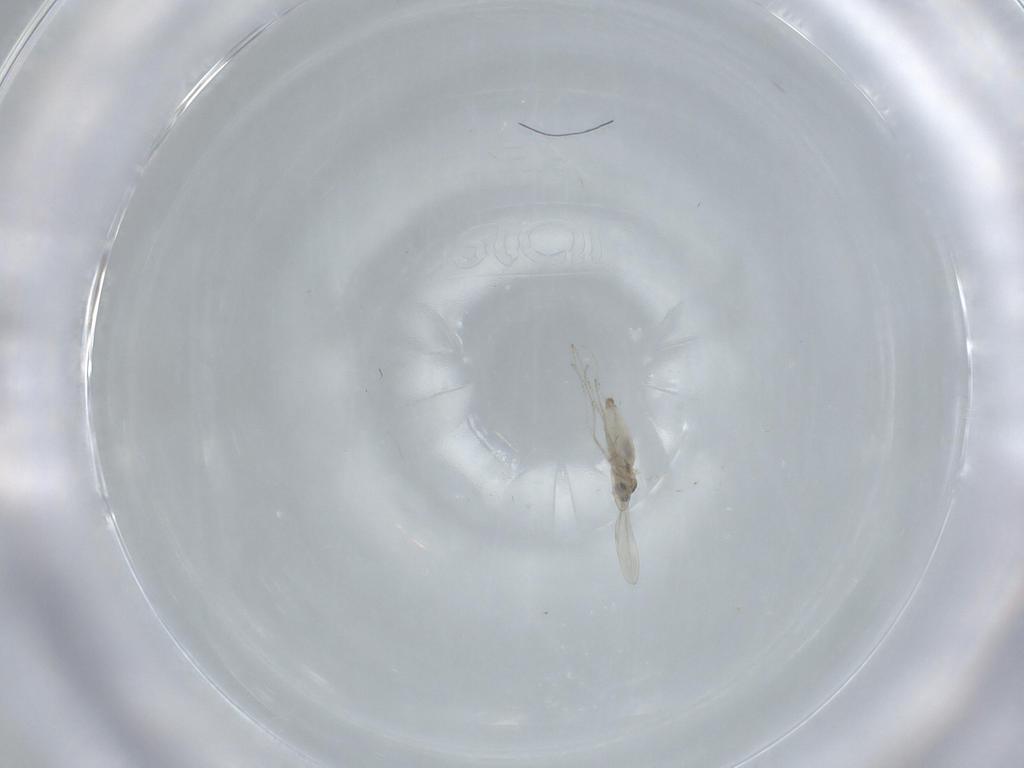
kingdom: Animalia
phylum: Arthropoda
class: Insecta
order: Diptera
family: Cecidomyiidae
